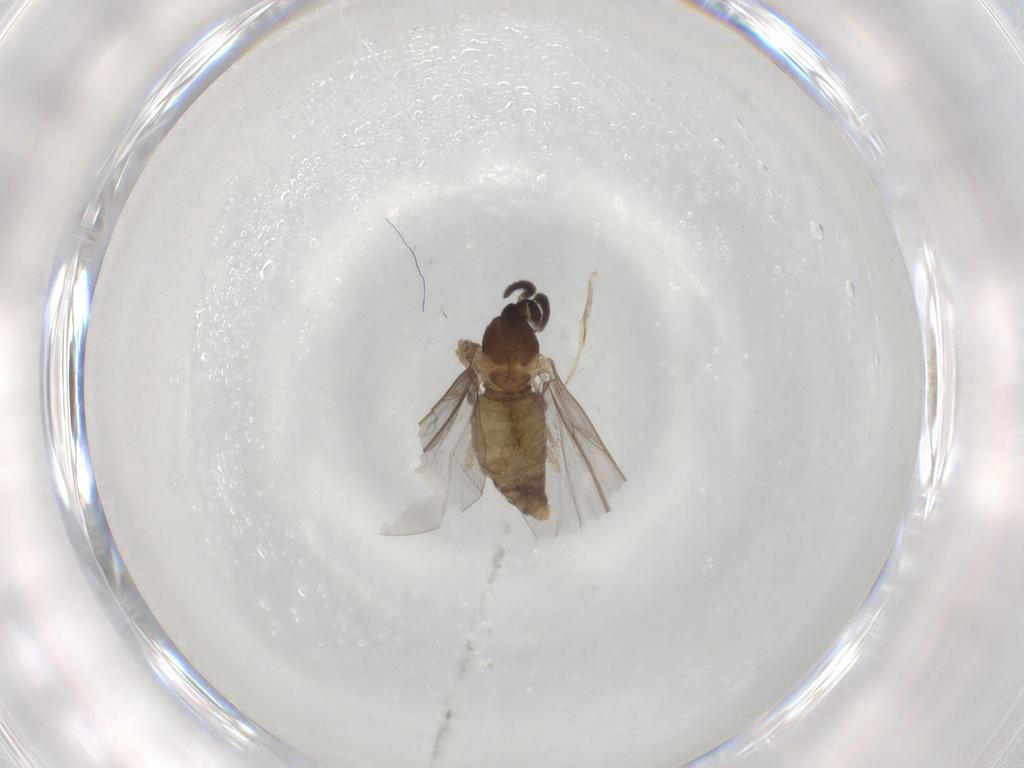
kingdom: Animalia
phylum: Arthropoda
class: Insecta
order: Diptera
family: Cecidomyiidae
